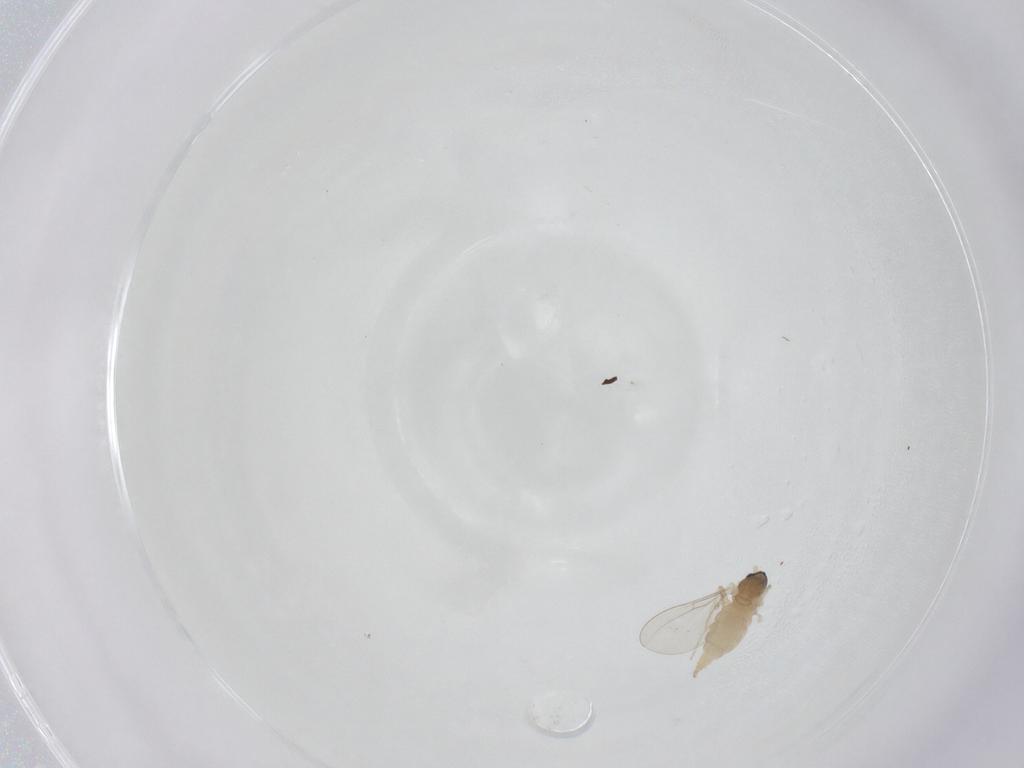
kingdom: Animalia
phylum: Arthropoda
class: Insecta
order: Diptera
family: Cecidomyiidae
